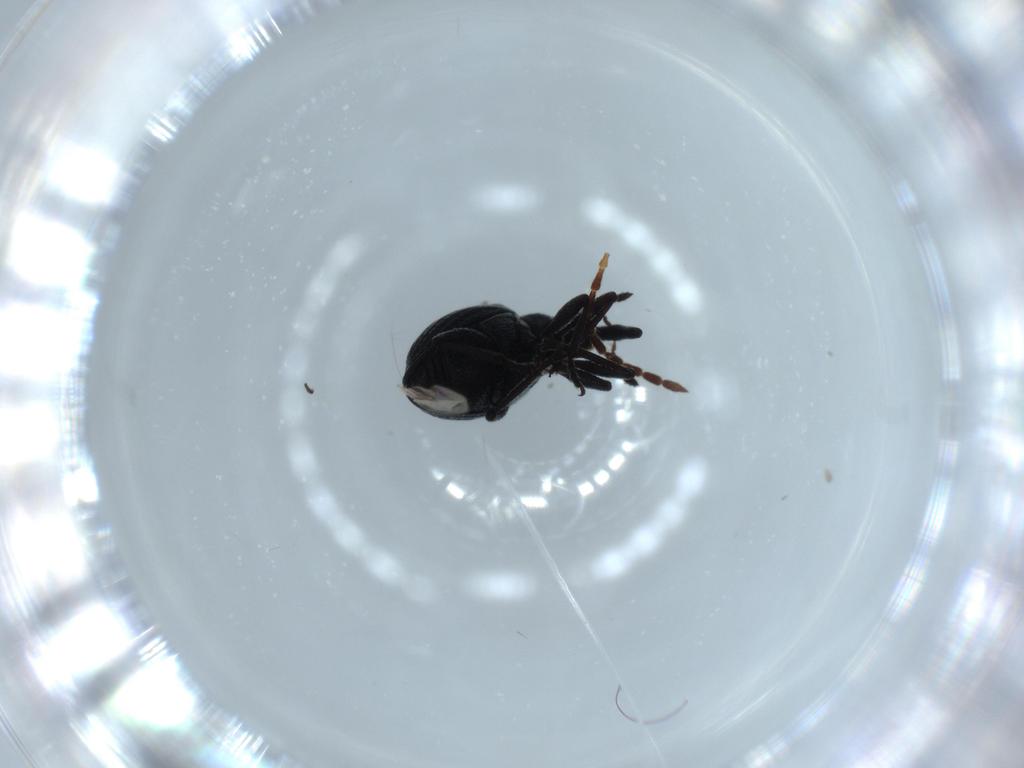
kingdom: Animalia
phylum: Arthropoda
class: Insecta
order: Coleoptera
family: Brentidae
